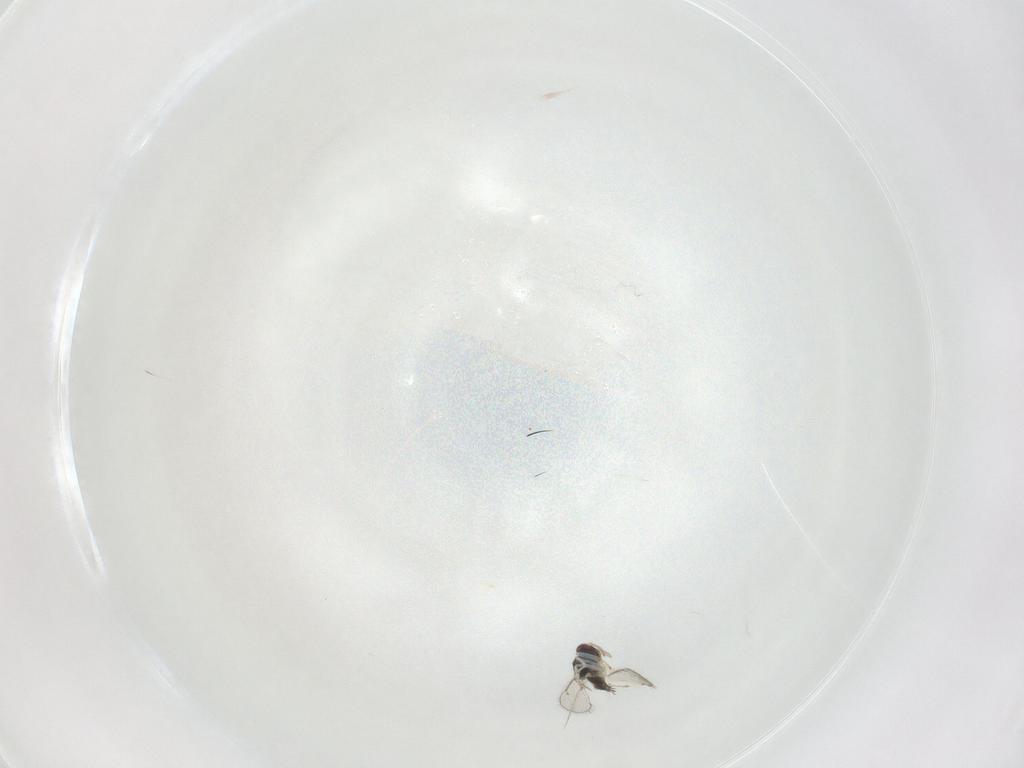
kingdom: Animalia
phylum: Arthropoda
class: Insecta
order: Hymenoptera
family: Eulophidae
